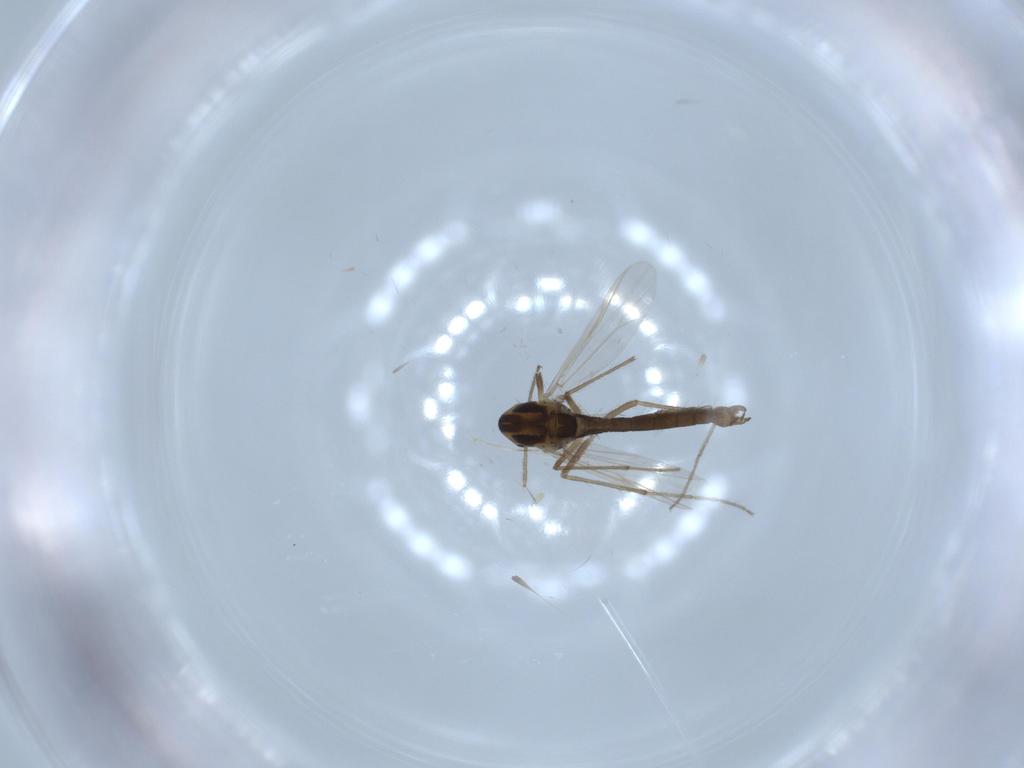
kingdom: Animalia
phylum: Arthropoda
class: Insecta
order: Diptera
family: Chironomidae
